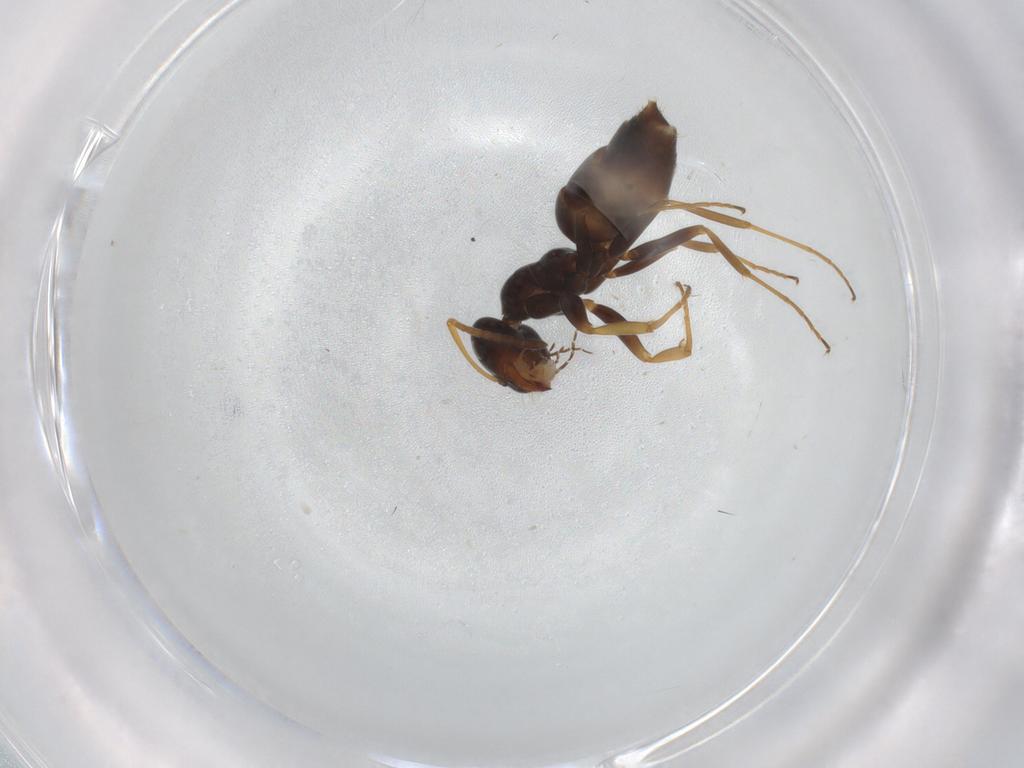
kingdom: Animalia
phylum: Arthropoda
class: Insecta
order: Hymenoptera
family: Formicidae
